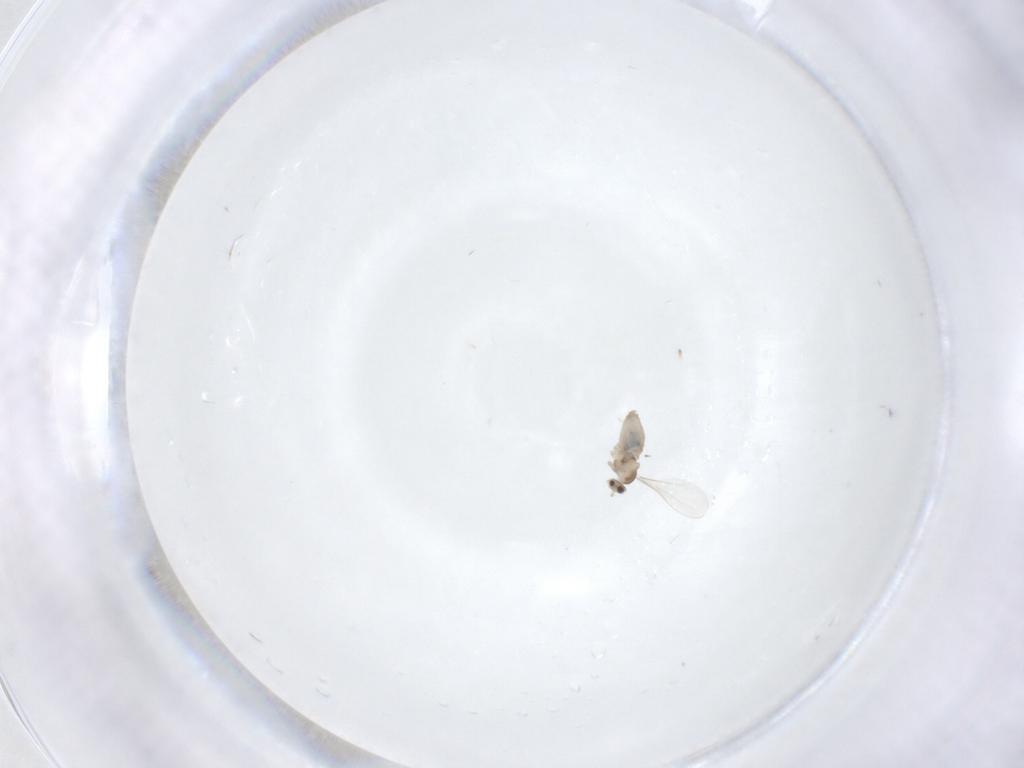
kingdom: Animalia
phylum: Arthropoda
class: Insecta
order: Diptera
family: Cecidomyiidae
